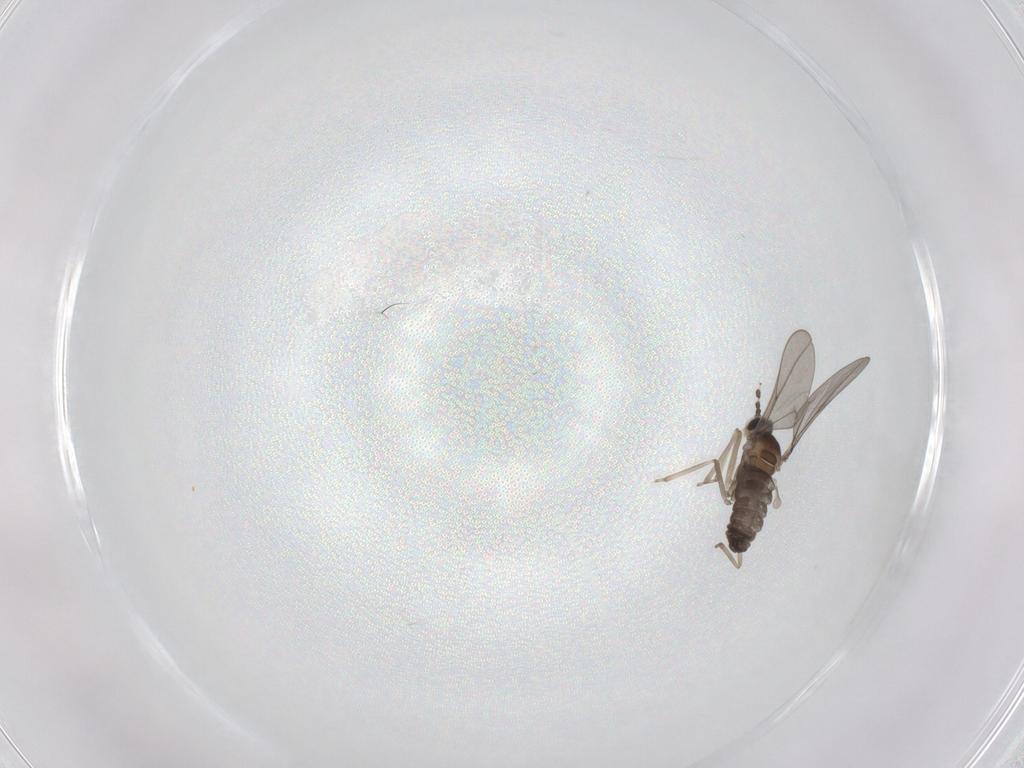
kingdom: Animalia
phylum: Arthropoda
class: Insecta
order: Diptera
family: Cecidomyiidae
